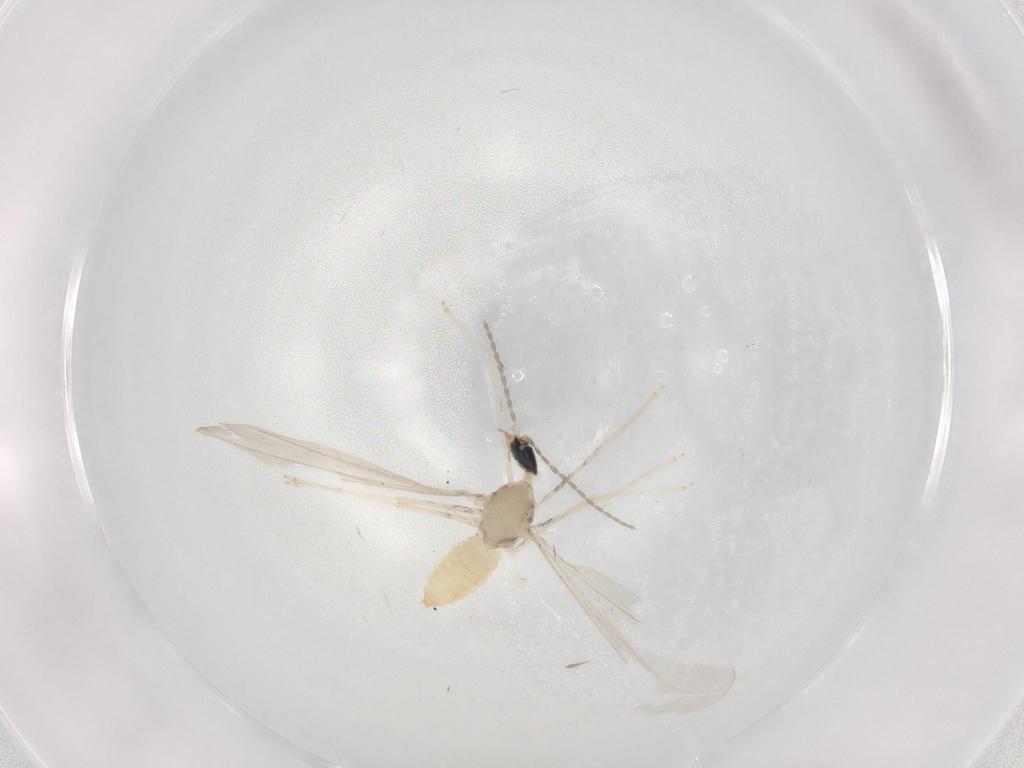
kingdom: Animalia
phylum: Arthropoda
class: Insecta
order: Diptera
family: Cecidomyiidae
